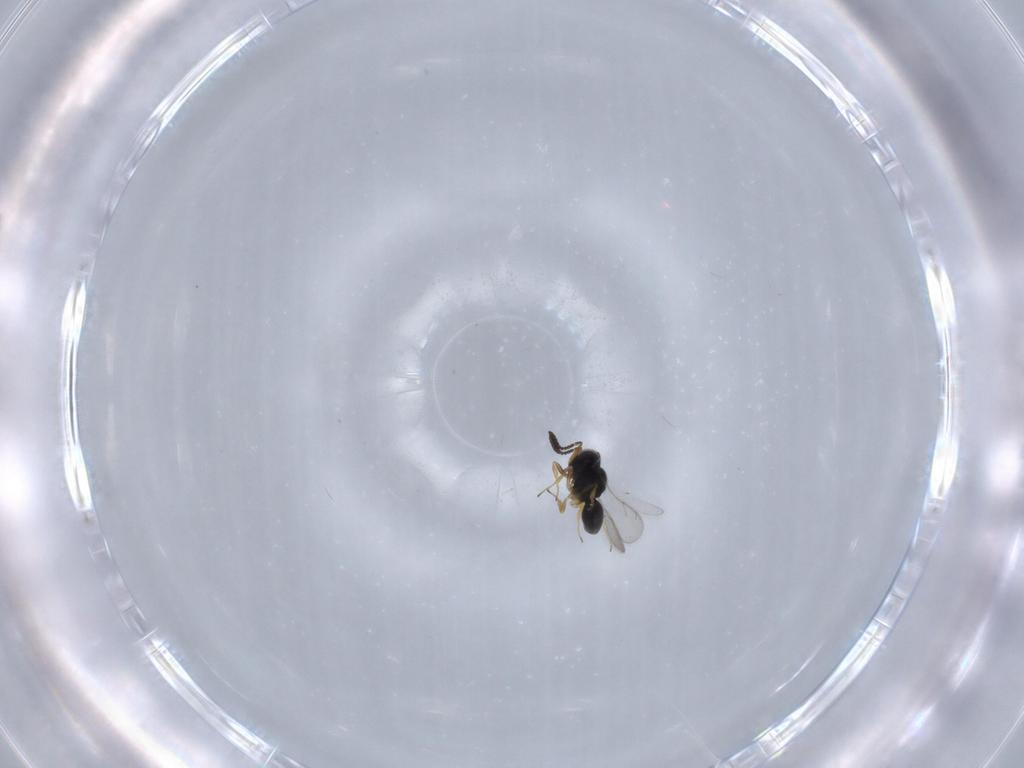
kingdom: Animalia
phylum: Arthropoda
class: Insecta
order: Hymenoptera
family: Scelionidae
